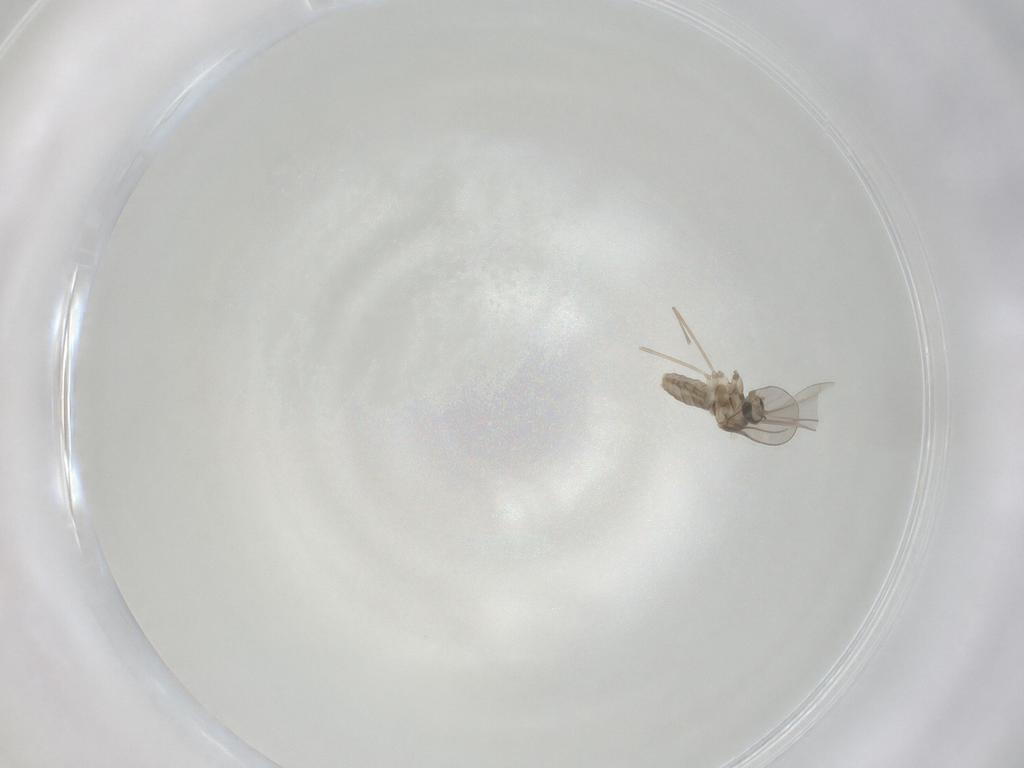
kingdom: Animalia
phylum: Arthropoda
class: Insecta
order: Diptera
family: Cecidomyiidae
